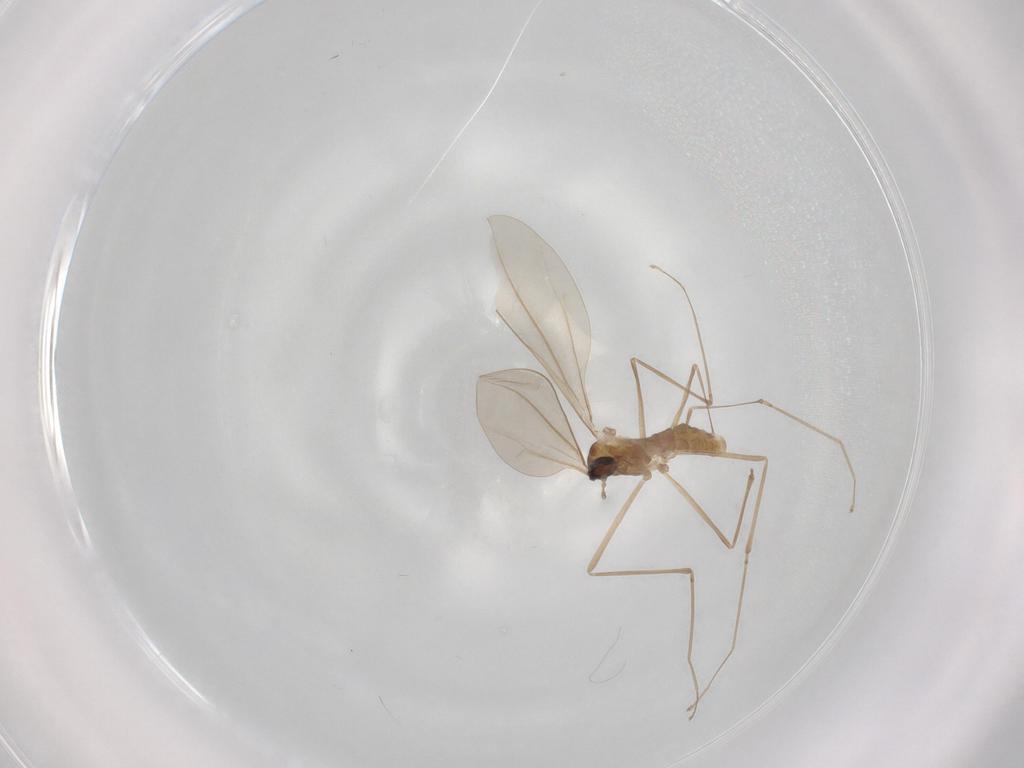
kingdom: Animalia
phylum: Arthropoda
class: Insecta
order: Diptera
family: Cecidomyiidae
